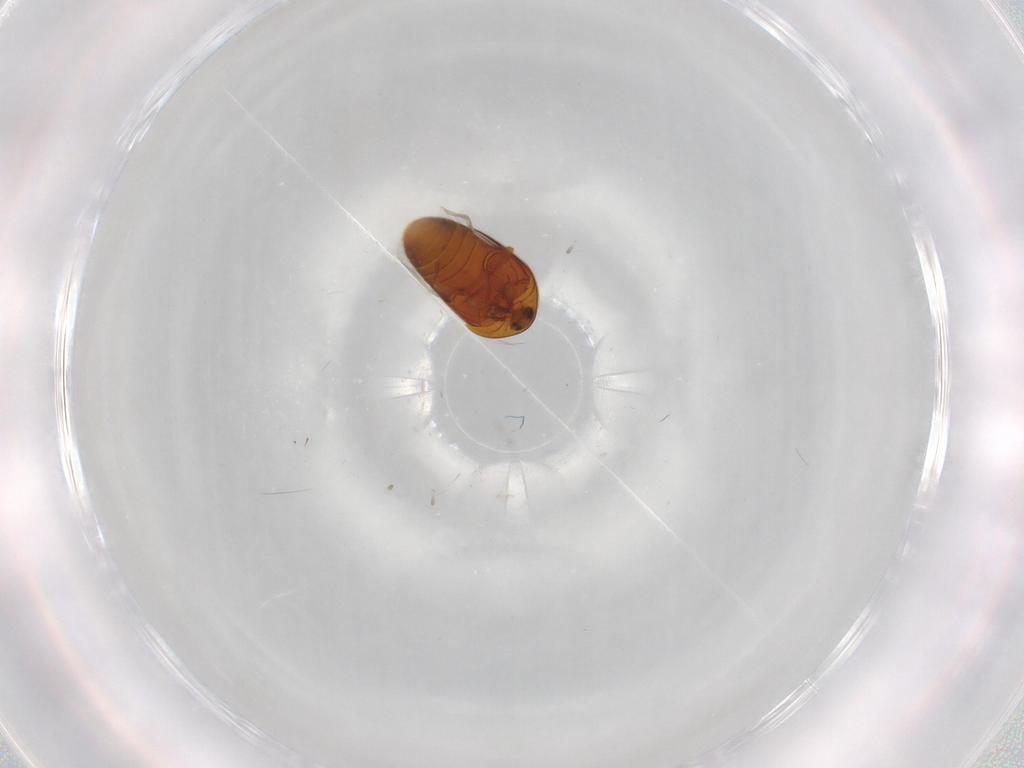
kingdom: Animalia
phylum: Arthropoda
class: Insecta
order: Coleoptera
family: Corylophidae
